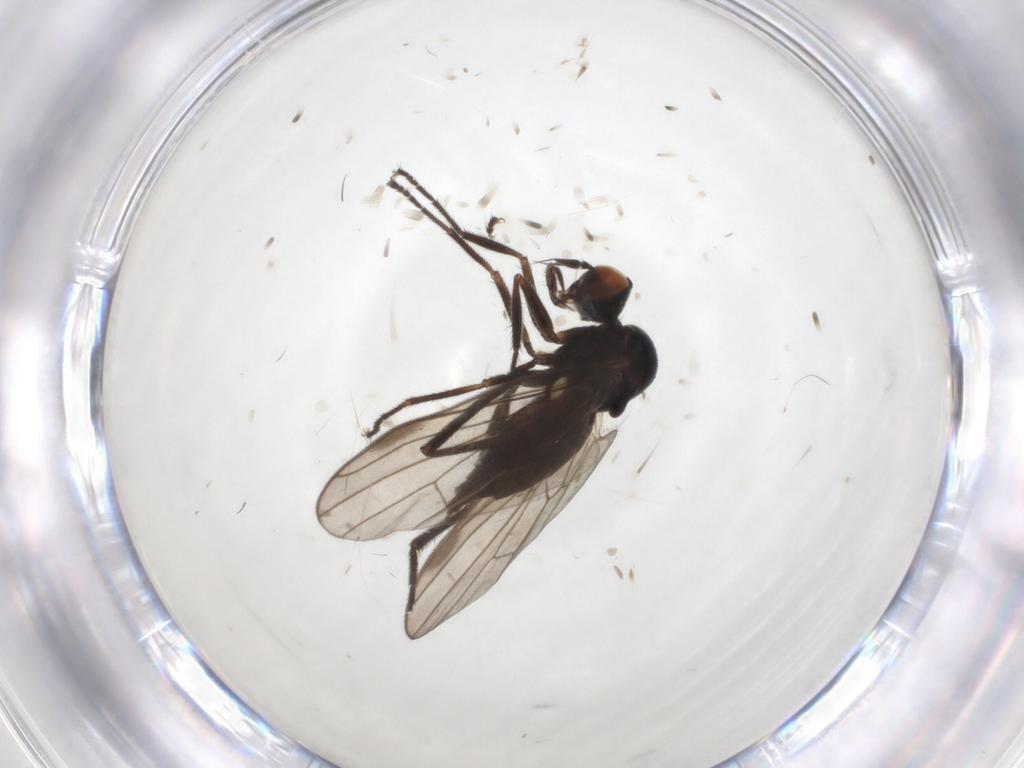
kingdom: Animalia
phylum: Arthropoda
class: Insecta
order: Diptera
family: Hybotidae
